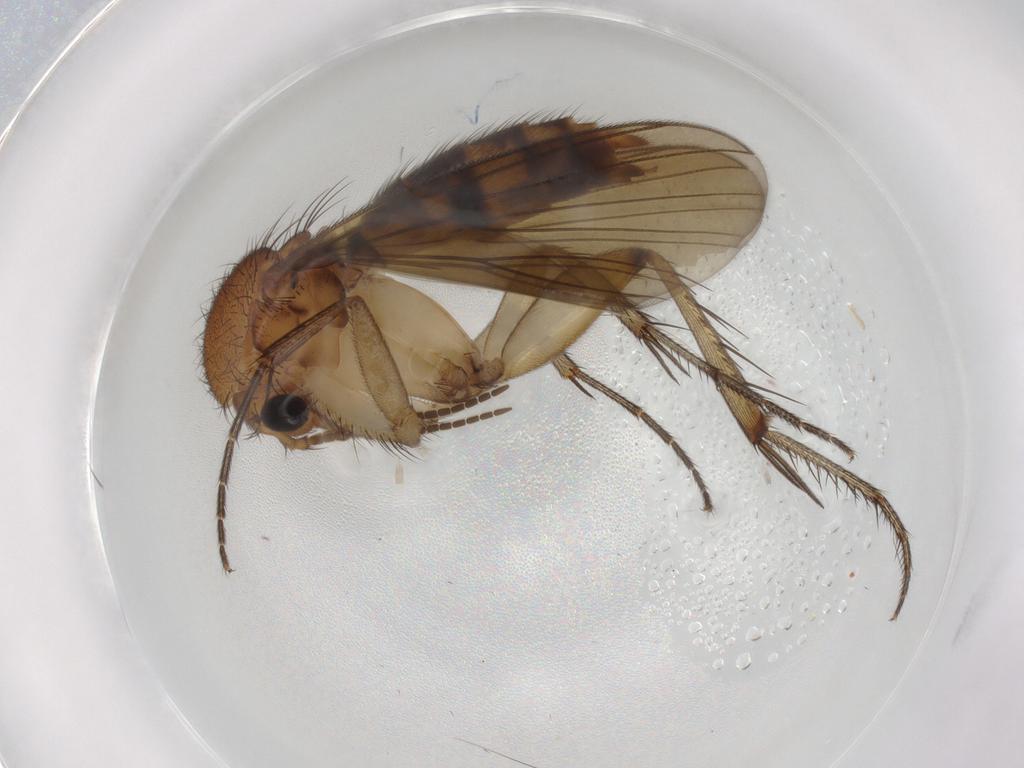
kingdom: Animalia
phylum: Arthropoda
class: Insecta
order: Diptera
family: Mycetophilidae
